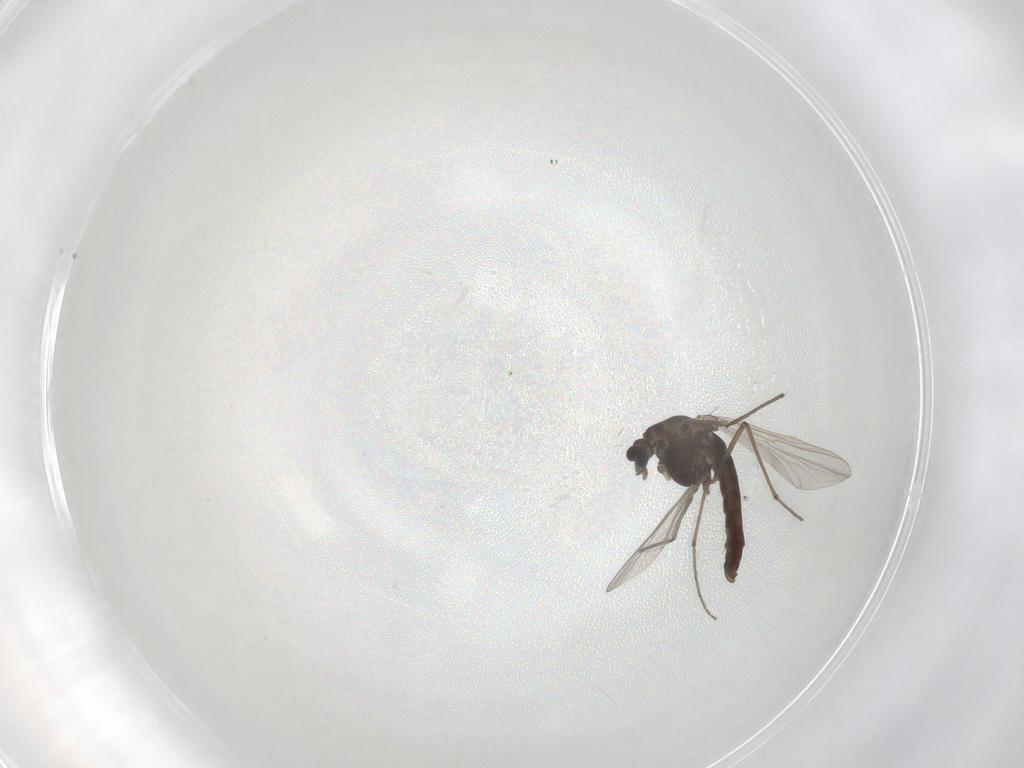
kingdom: Animalia
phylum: Arthropoda
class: Insecta
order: Diptera
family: Chironomidae
